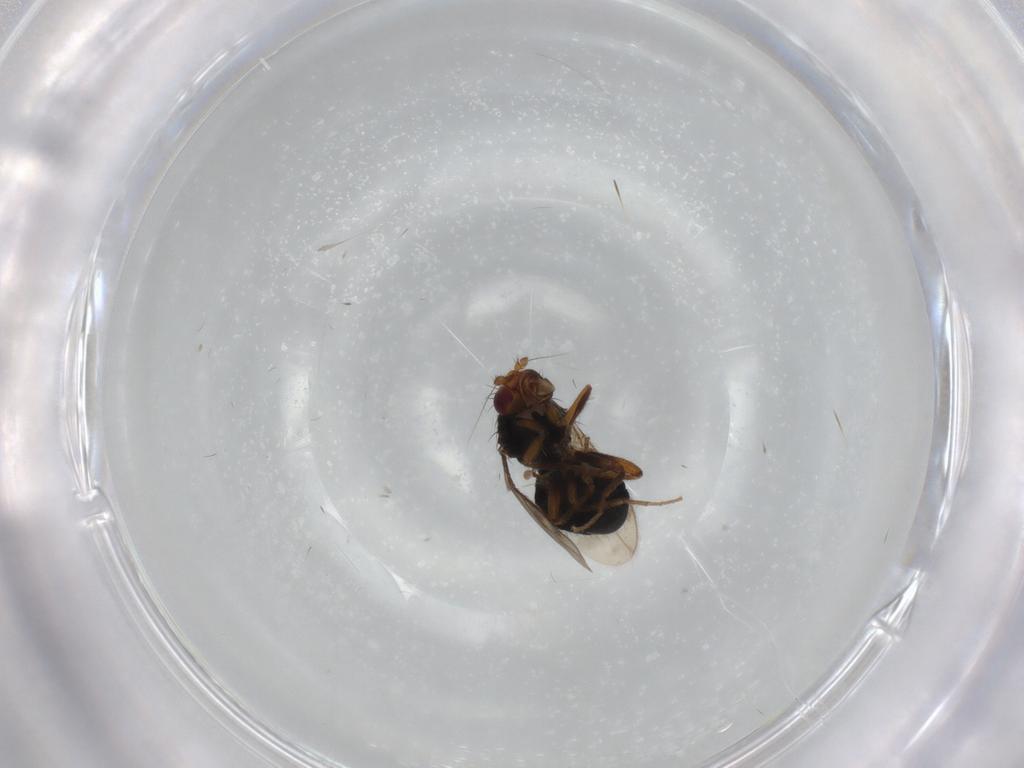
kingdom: Animalia
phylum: Arthropoda
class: Insecta
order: Diptera
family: Sphaeroceridae
